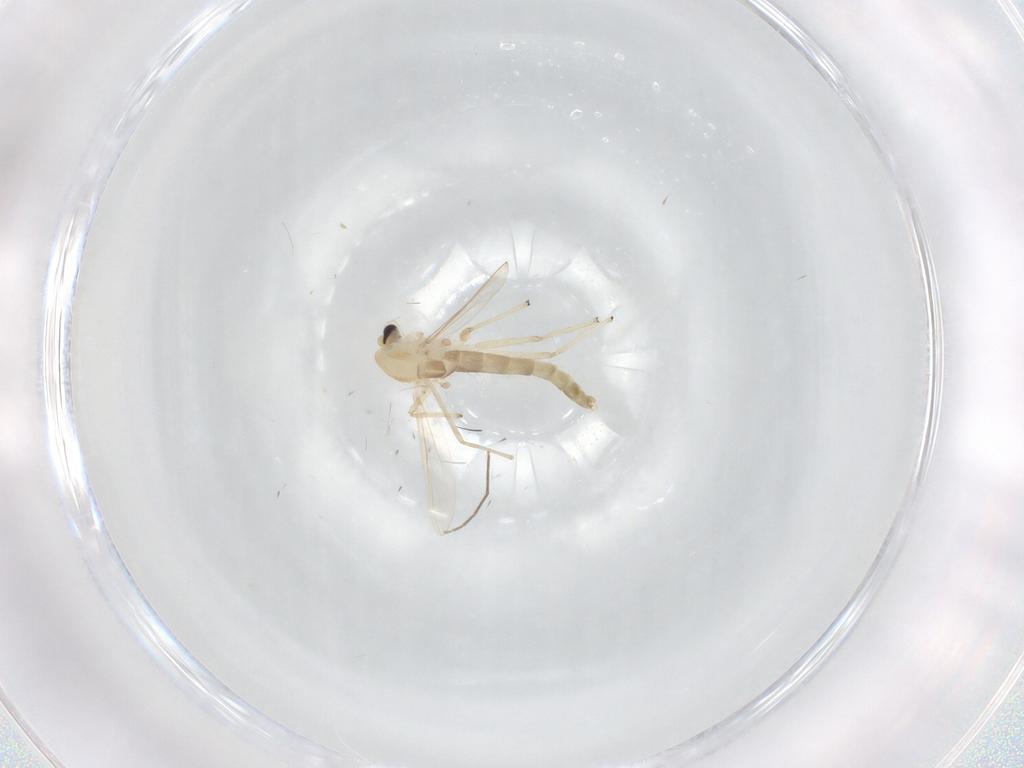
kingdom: Animalia
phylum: Arthropoda
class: Insecta
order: Diptera
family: Chironomidae
